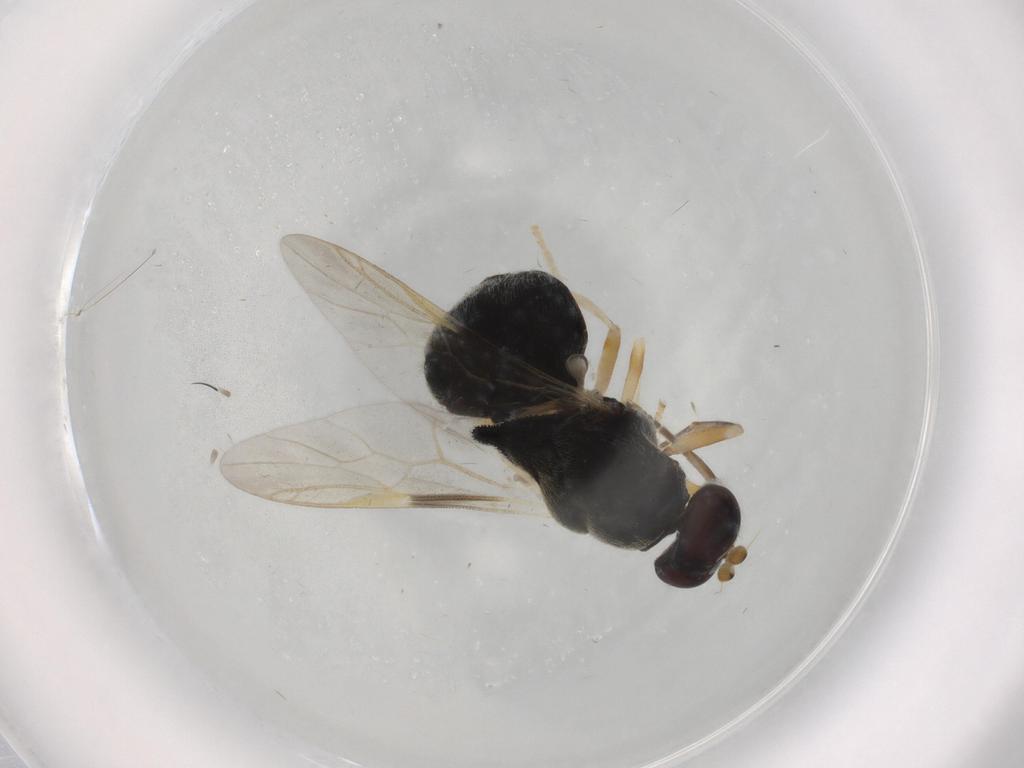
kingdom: Animalia
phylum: Arthropoda
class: Insecta
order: Diptera
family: Stratiomyidae
